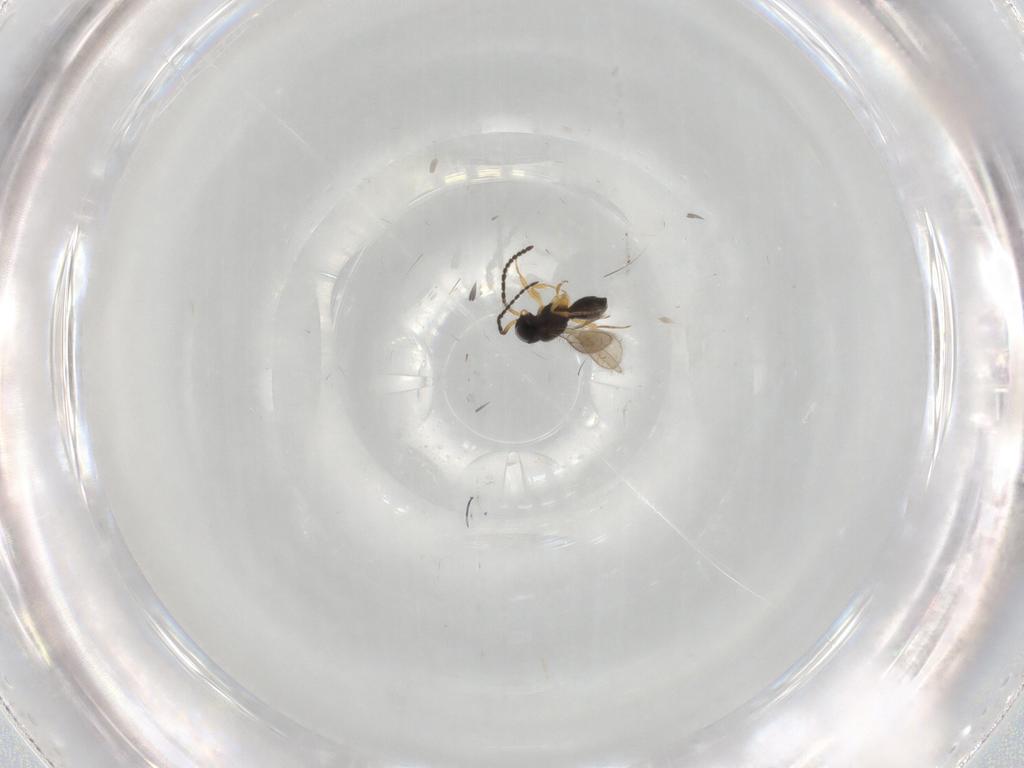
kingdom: Animalia
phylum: Arthropoda
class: Insecta
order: Hymenoptera
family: Scelionidae
